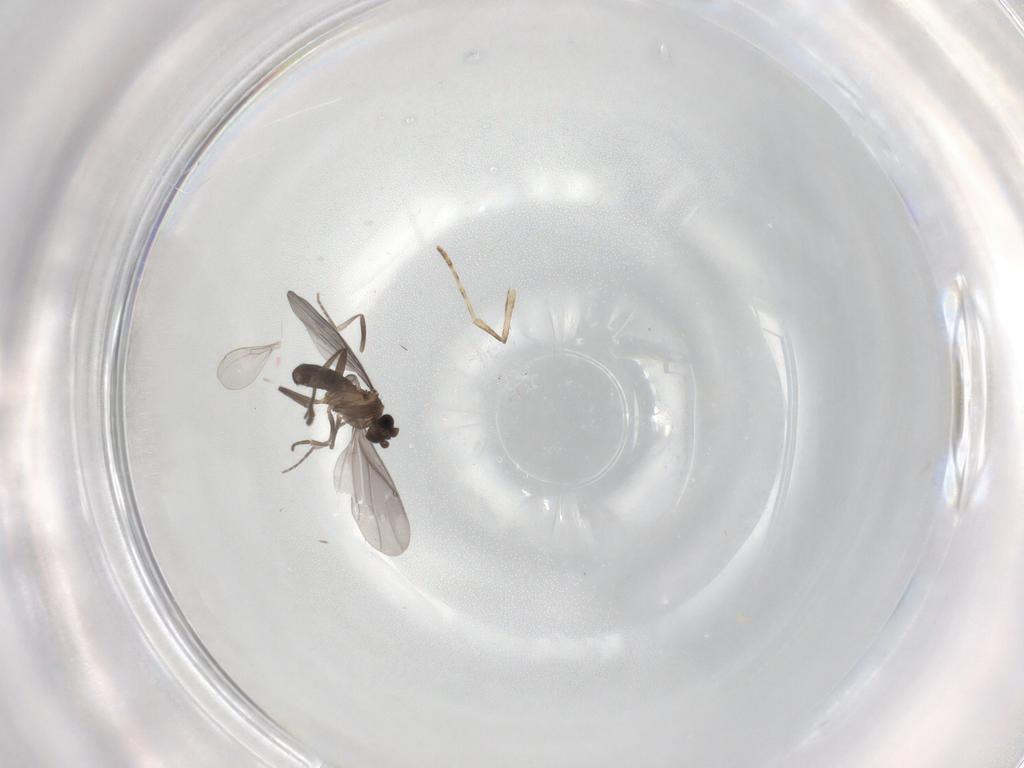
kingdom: Animalia
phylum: Arthropoda
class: Insecta
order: Diptera
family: Phoridae
